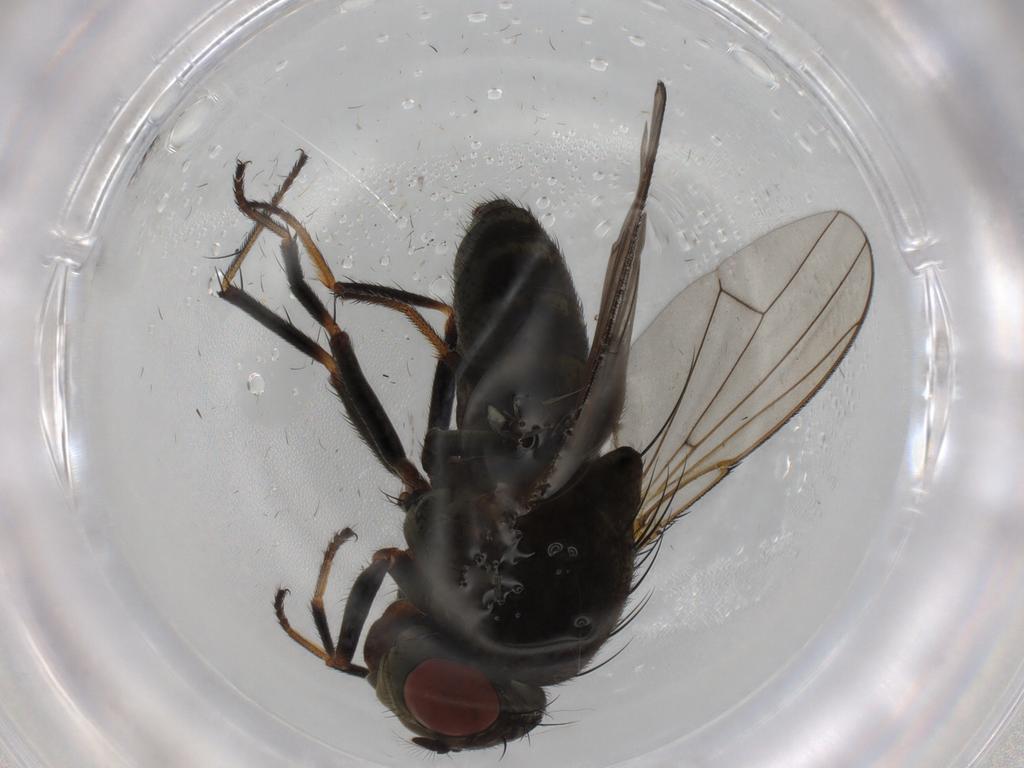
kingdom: Animalia
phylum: Arthropoda
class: Insecta
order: Diptera
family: Ephydridae
